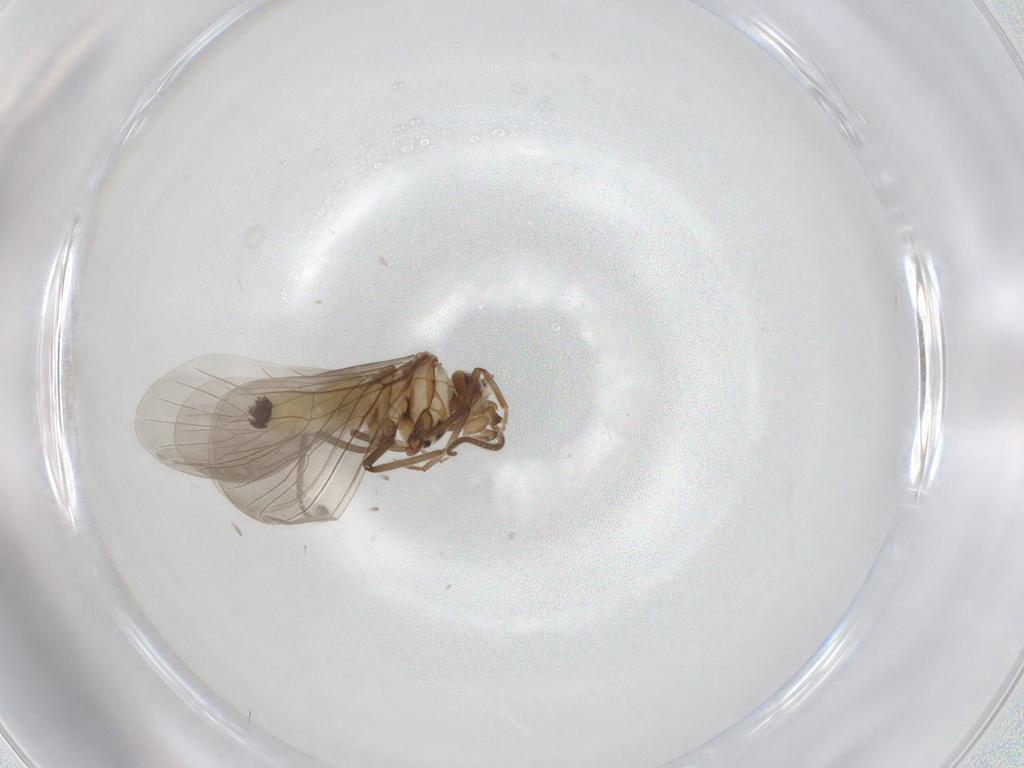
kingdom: Animalia
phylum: Arthropoda
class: Insecta
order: Neuroptera
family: Coniopterygidae
